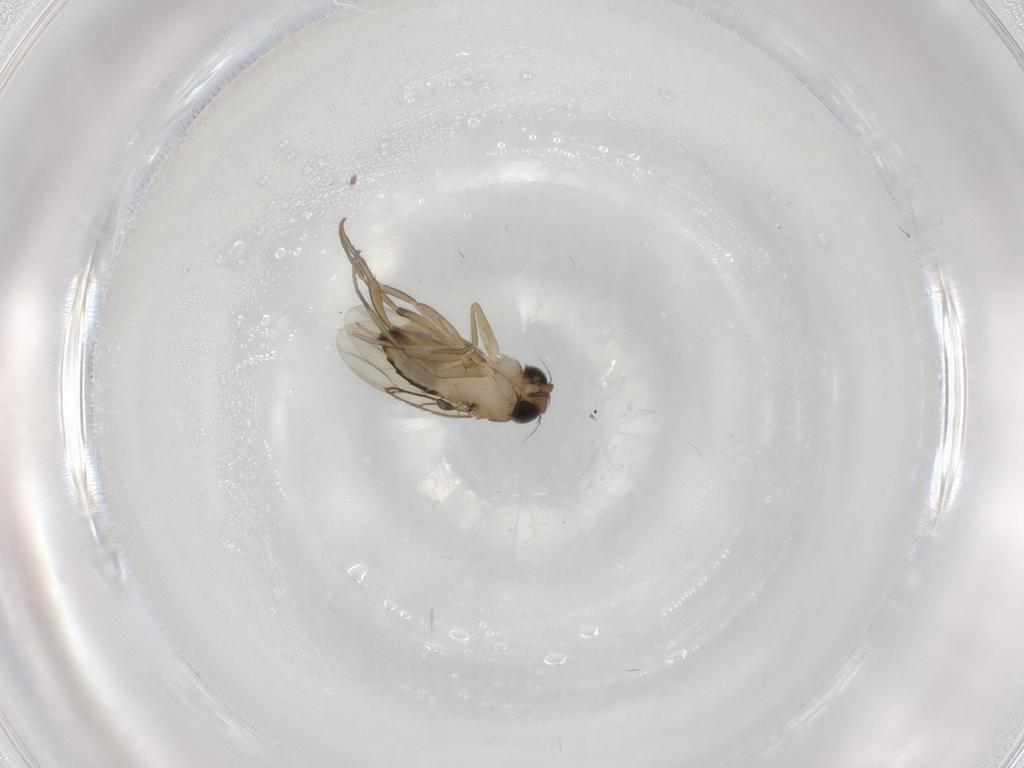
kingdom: Animalia
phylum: Arthropoda
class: Insecta
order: Diptera
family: Phoridae
